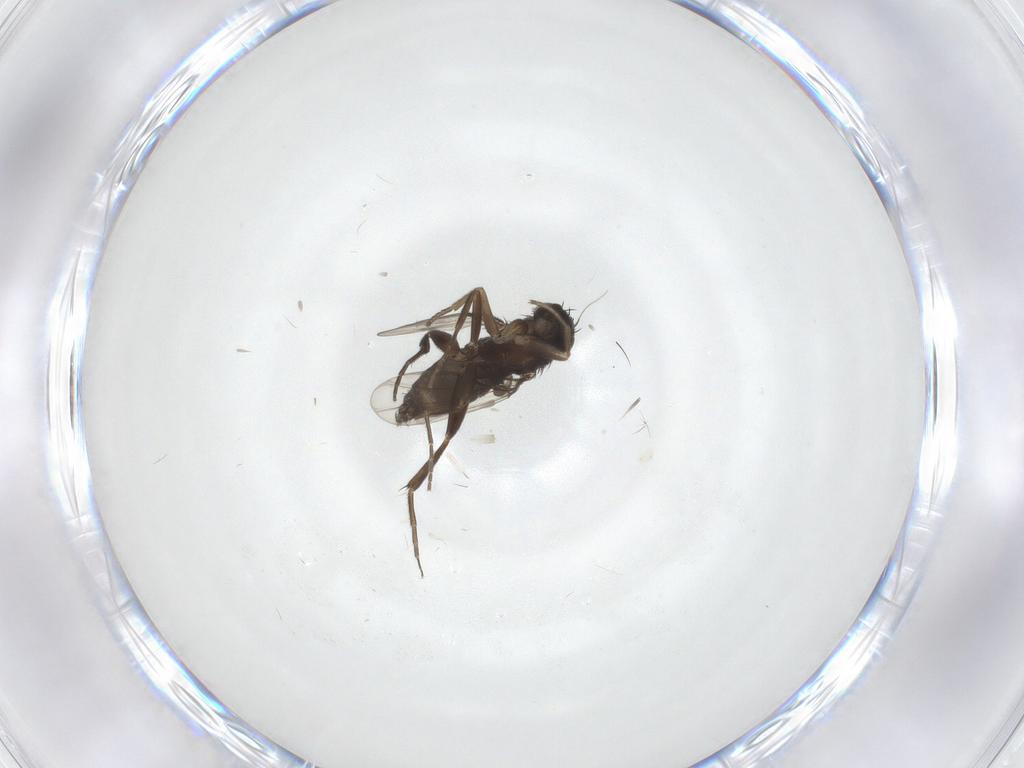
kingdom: Animalia
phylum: Arthropoda
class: Insecta
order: Diptera
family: Phoridae
